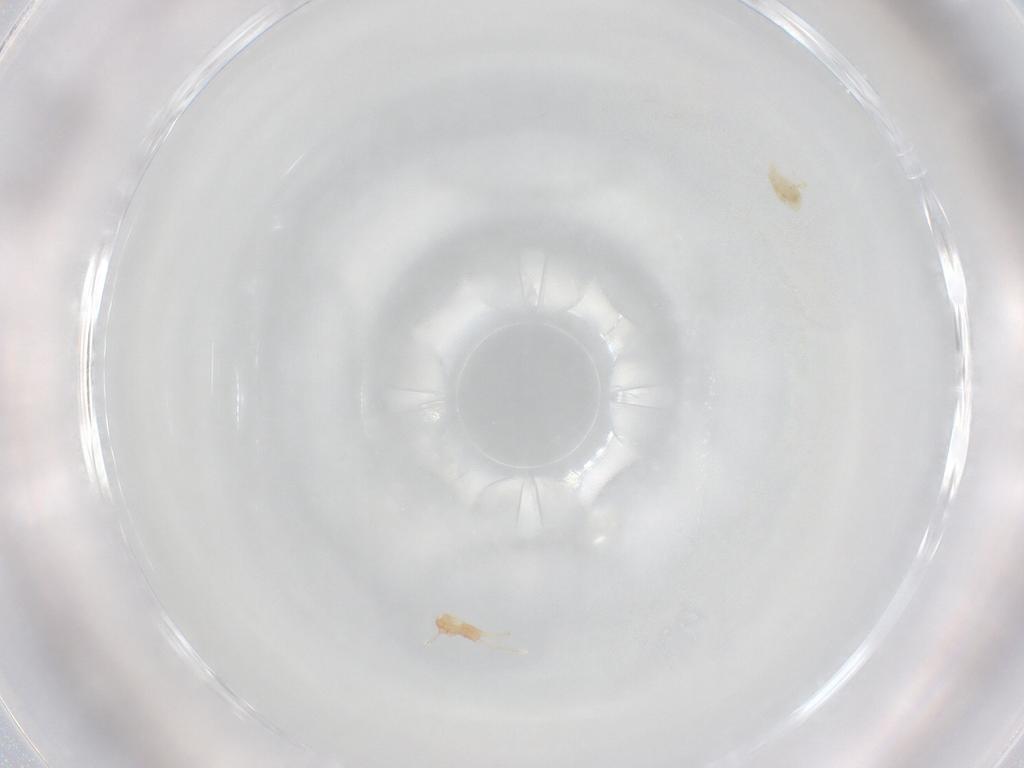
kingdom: Animalia
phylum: Arthropoda
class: Arachnida
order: Trombidiformes
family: Eupodidae
